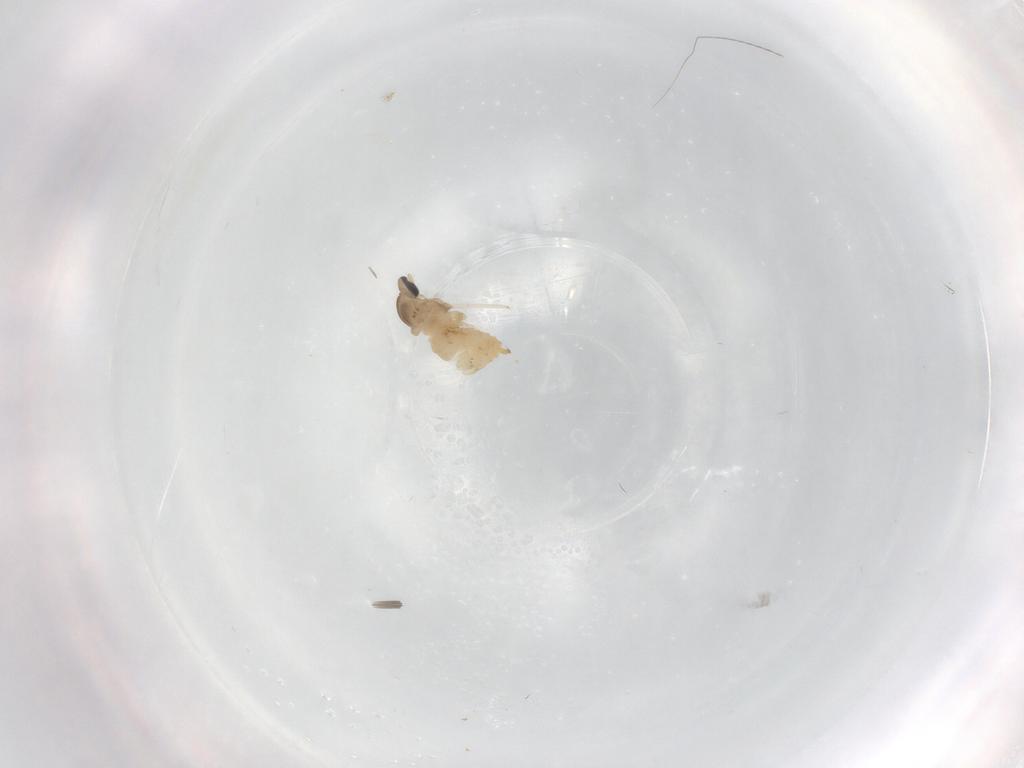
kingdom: Animalia
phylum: Arthropoda
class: Insecta
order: Diptera
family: Cecidomyiidae
